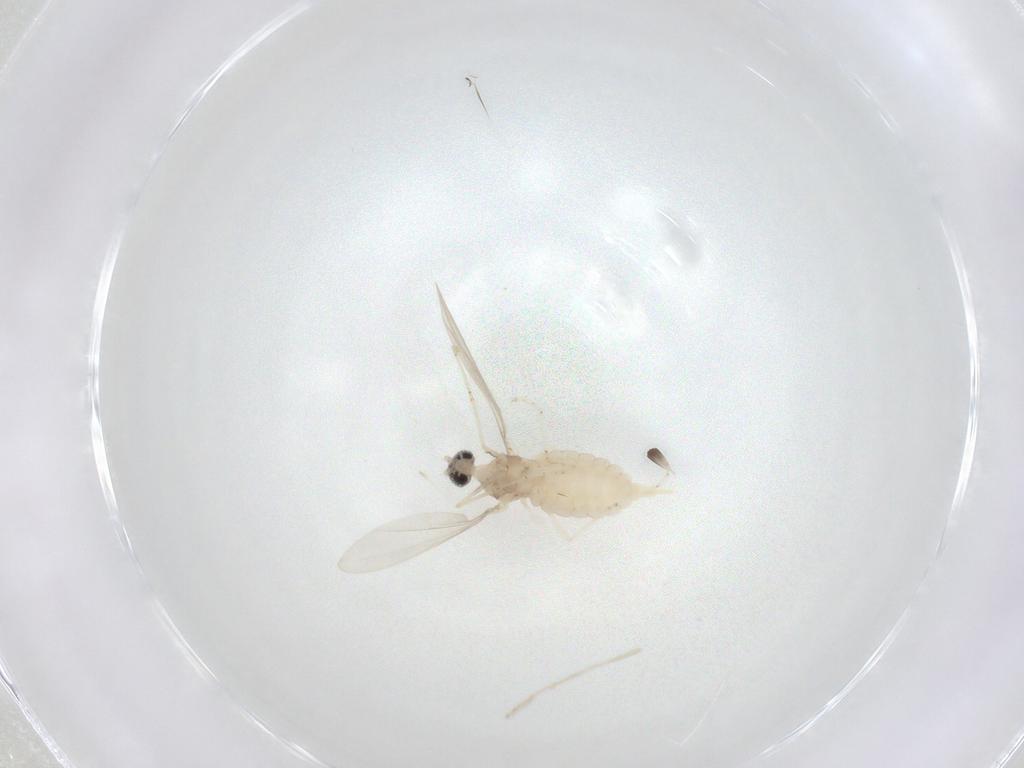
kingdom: Animalia
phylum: Arthropoda
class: Insecta
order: Diptera
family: Cecidomyiidae
